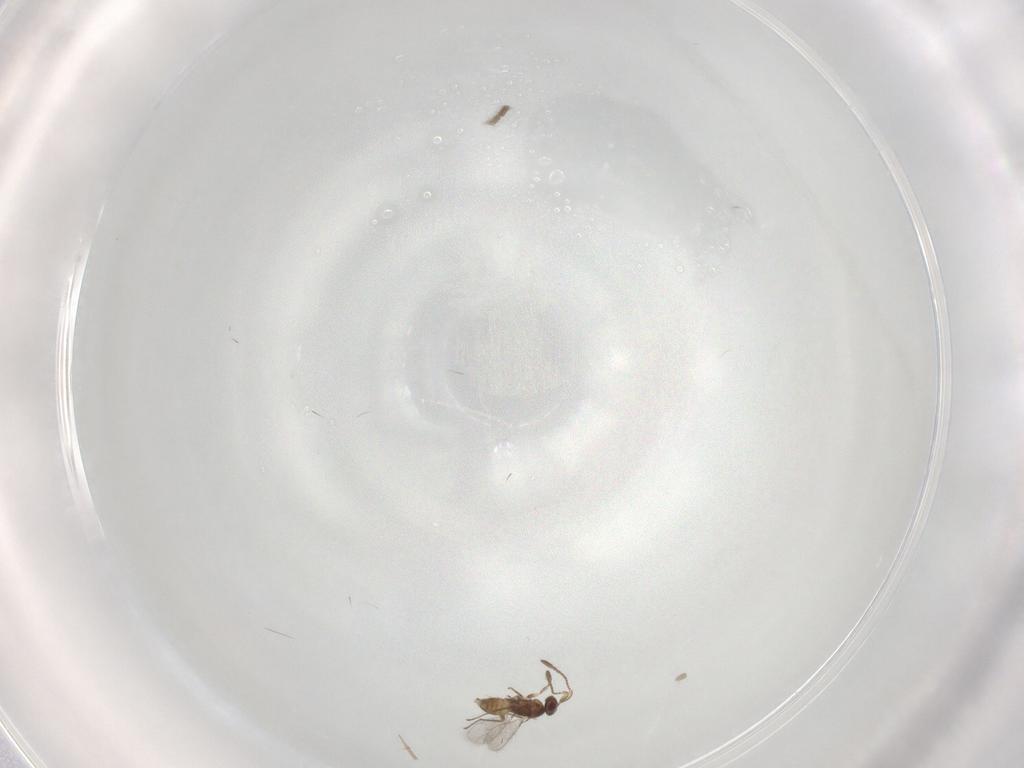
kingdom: Animalia
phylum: Arthropoda
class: Insecta
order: Hymenoptera
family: Mymaridae
